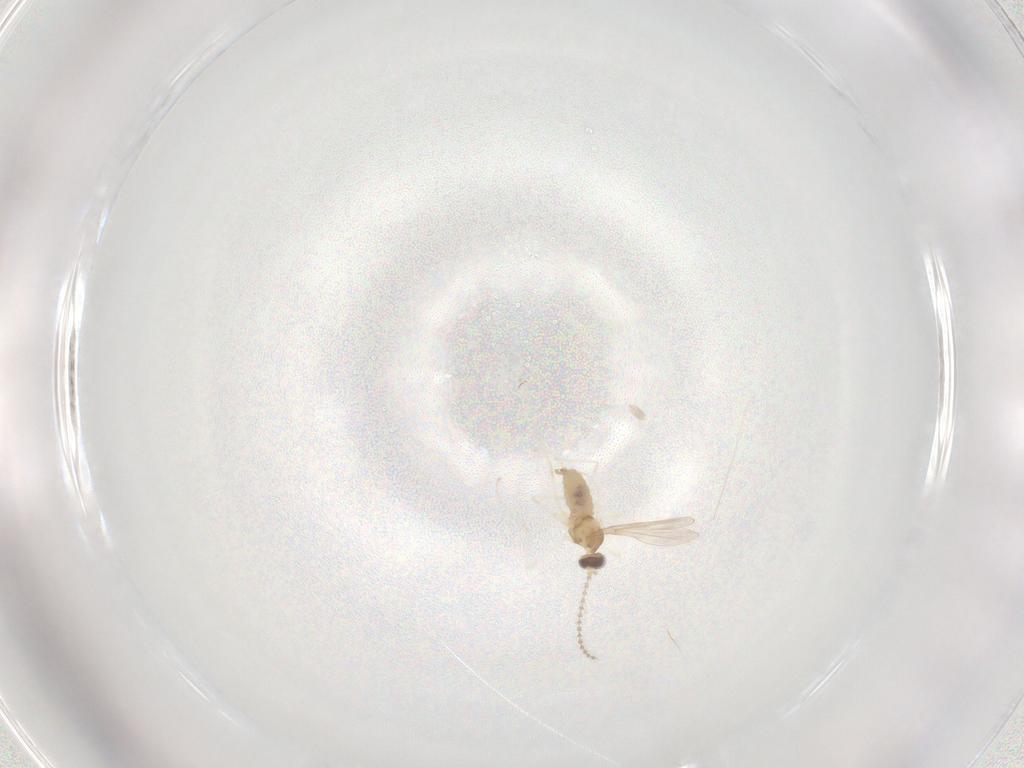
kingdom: Animalia
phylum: Arthropoda
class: Insecta
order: Diptera
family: Cecidomyiidae
